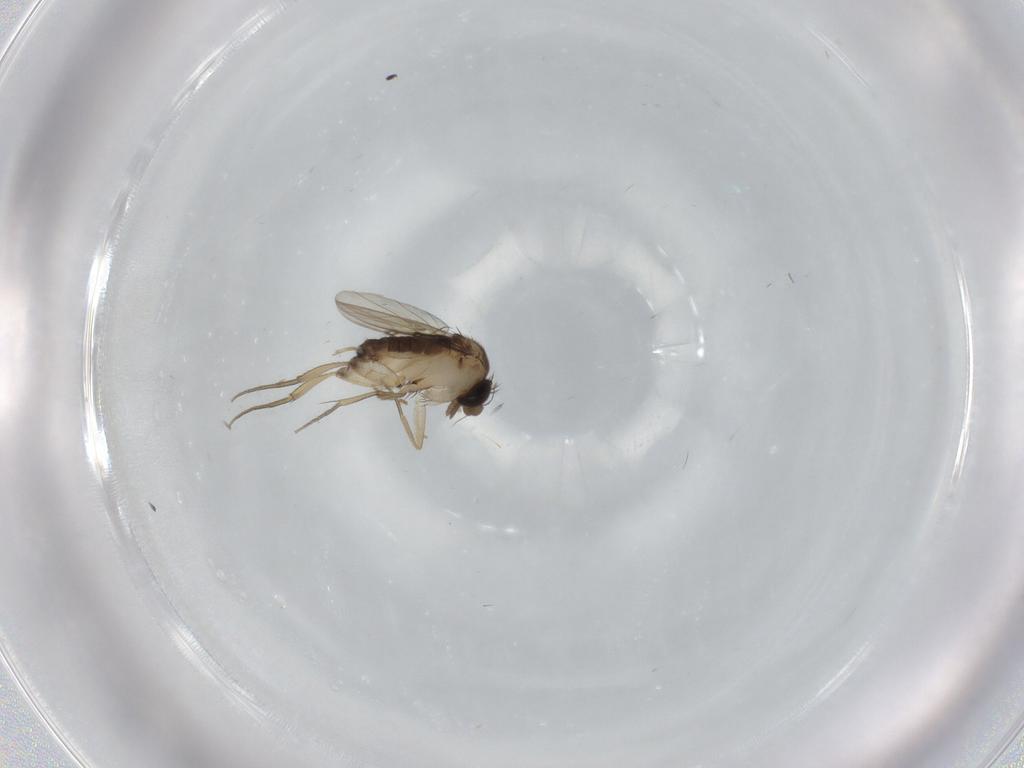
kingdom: Animalia
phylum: Arthropoda
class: Insecta
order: Diptera
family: Phoridae
